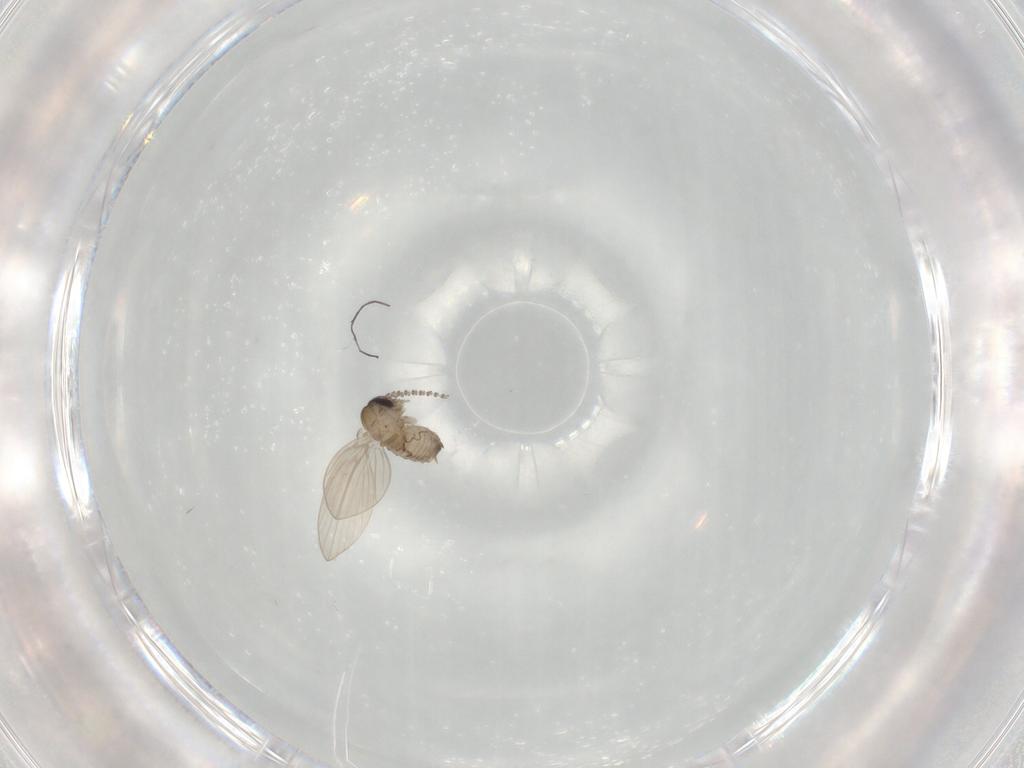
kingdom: Animalia
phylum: Arthropoda
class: Insecta
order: Diptera
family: Psychodidae
